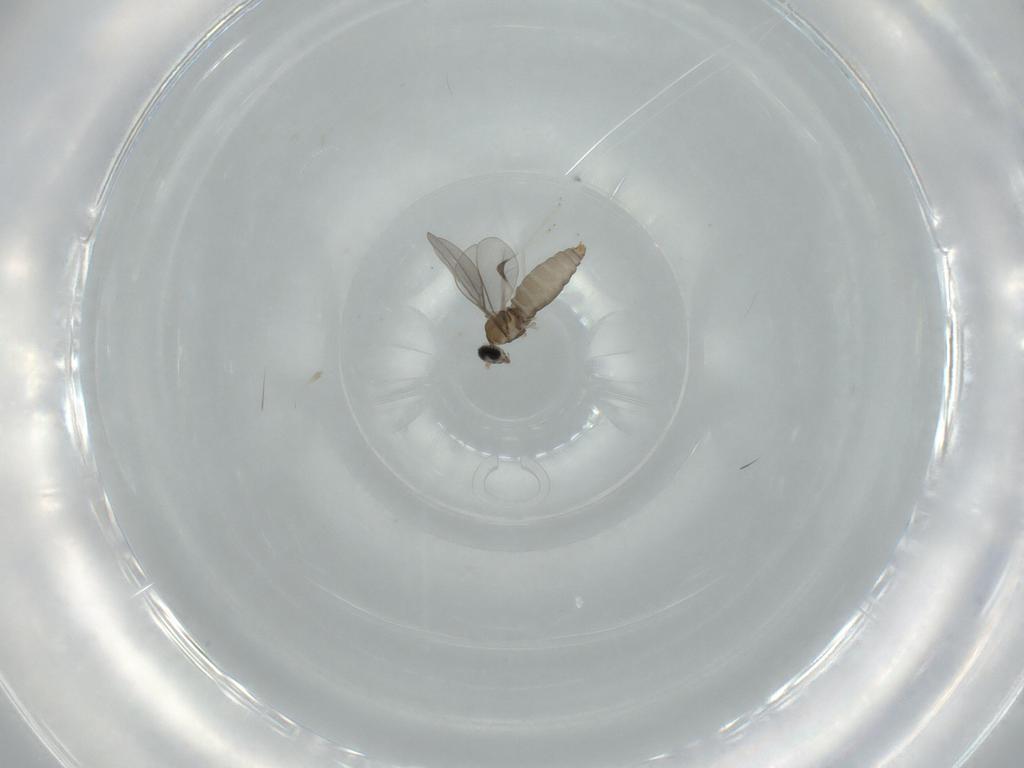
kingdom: Animalia
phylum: Arthropoda
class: Insecta
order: Diptera
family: Cecidomyiidae
